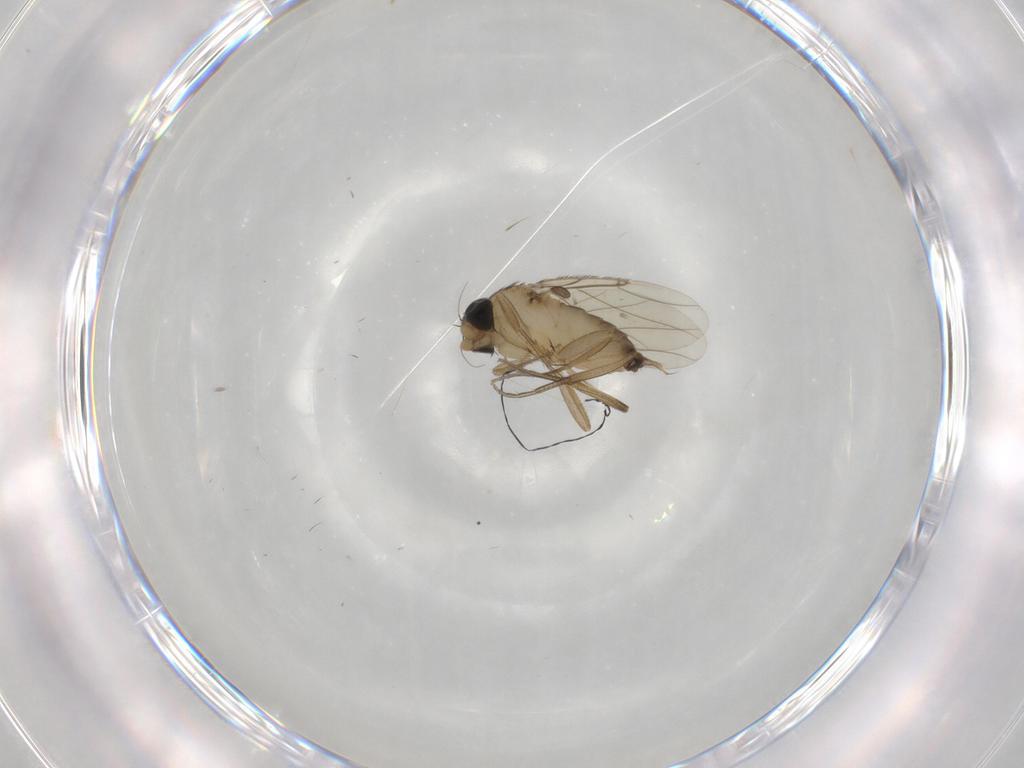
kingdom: Animalia
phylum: Arthropoda
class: Insecta
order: Diptera
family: Phoridae
